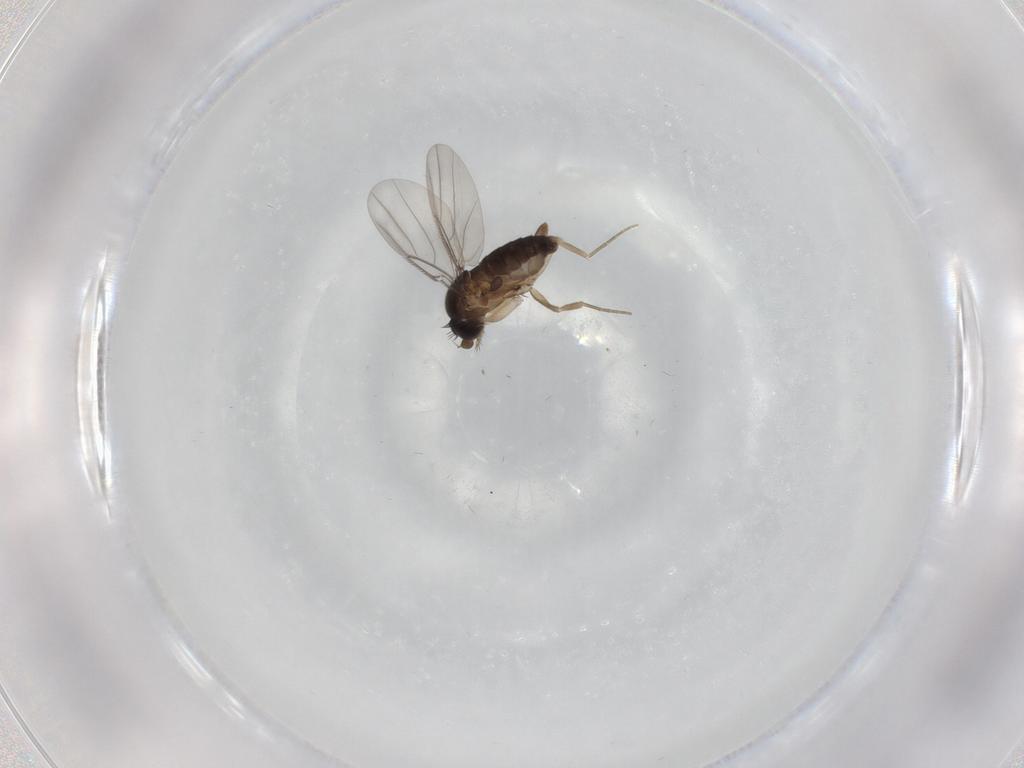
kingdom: Animalia
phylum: Arthropoda
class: Insecta
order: Diptera
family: Phoridae
